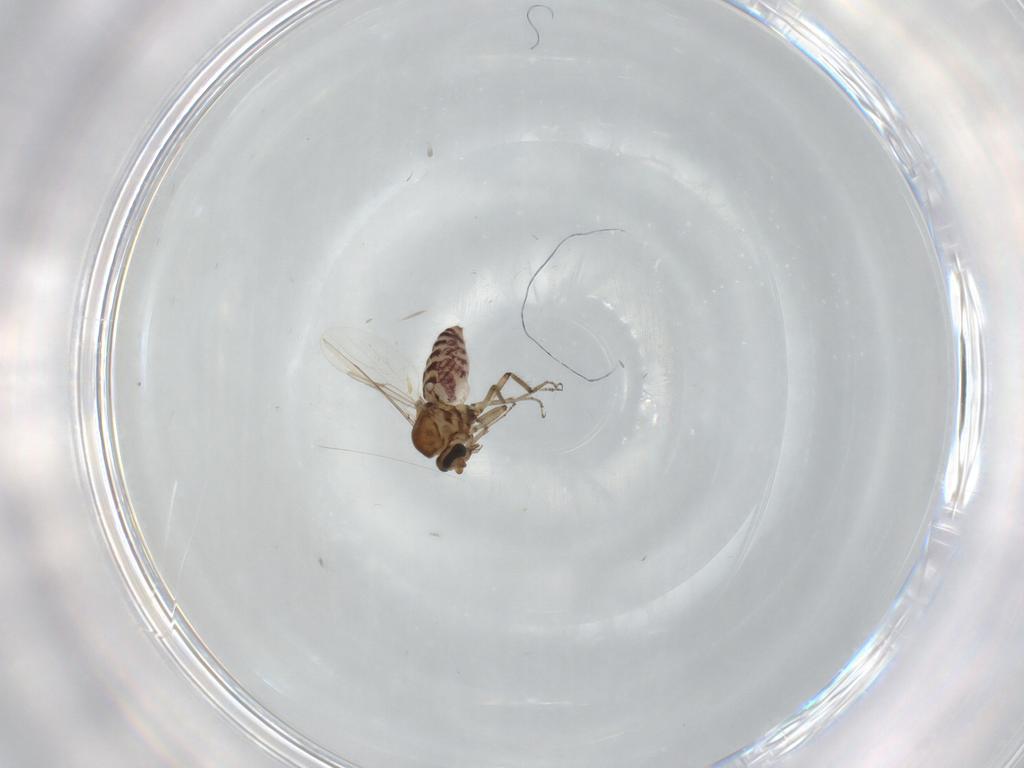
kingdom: Animalia
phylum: Arthropoda
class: Insecta
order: Diptera
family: Ceratopogonidae
